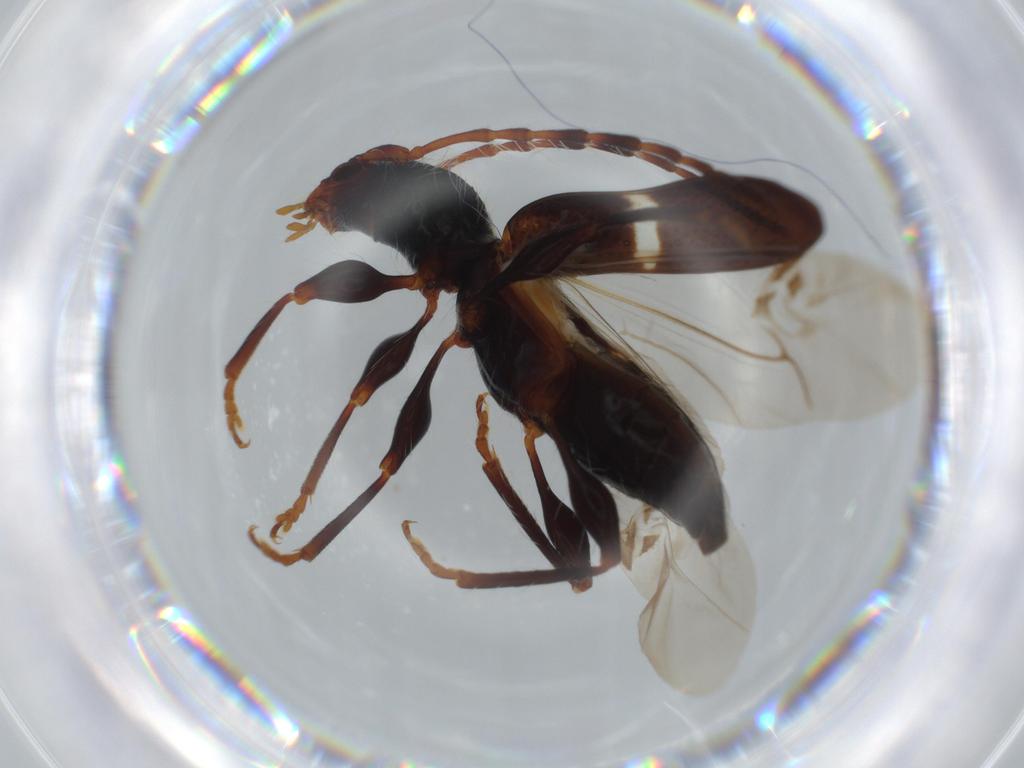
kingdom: Animalia
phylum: Arthropoda
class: Insecta
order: Coleoptera
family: Cerambycidae
